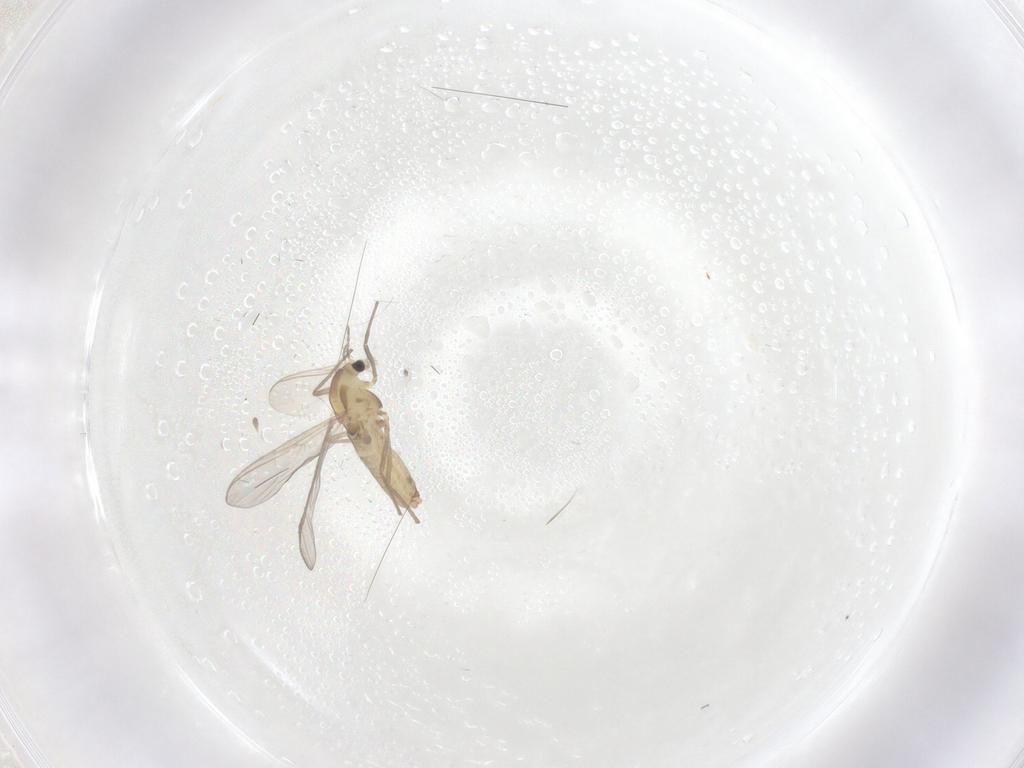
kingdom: Animalia
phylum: Arthropoda
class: Insecta
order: Diptera
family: Chironomidae
